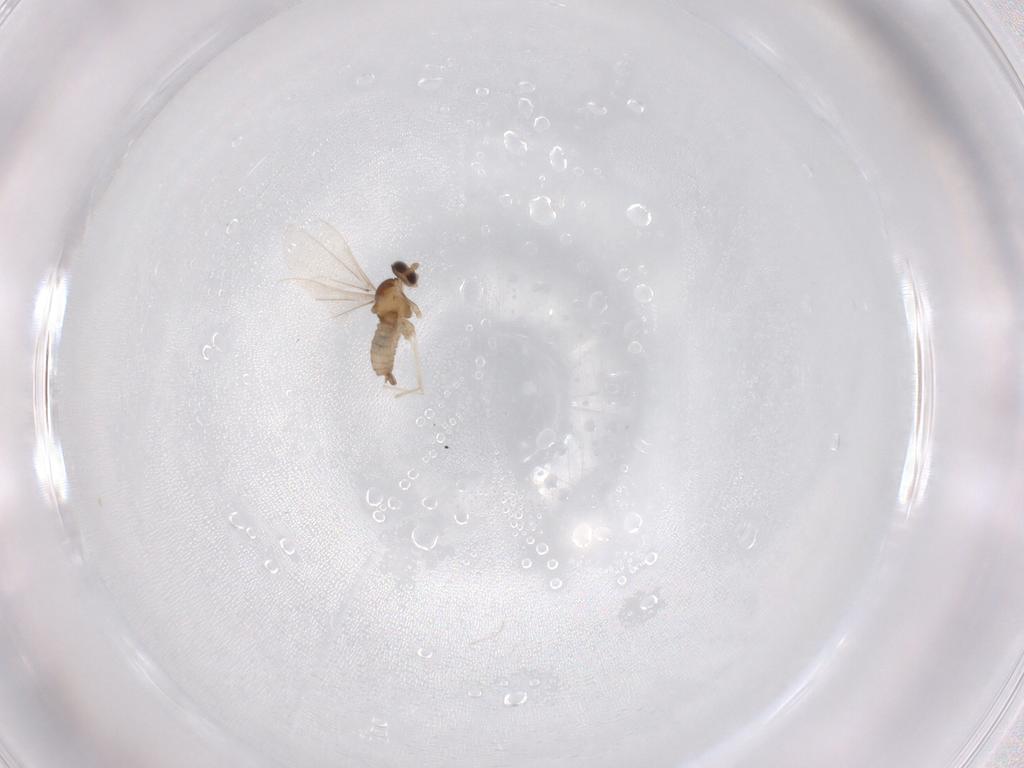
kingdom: Animalia
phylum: Arthropoda
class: Insecta
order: Diptera
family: Cecidomyiidae
